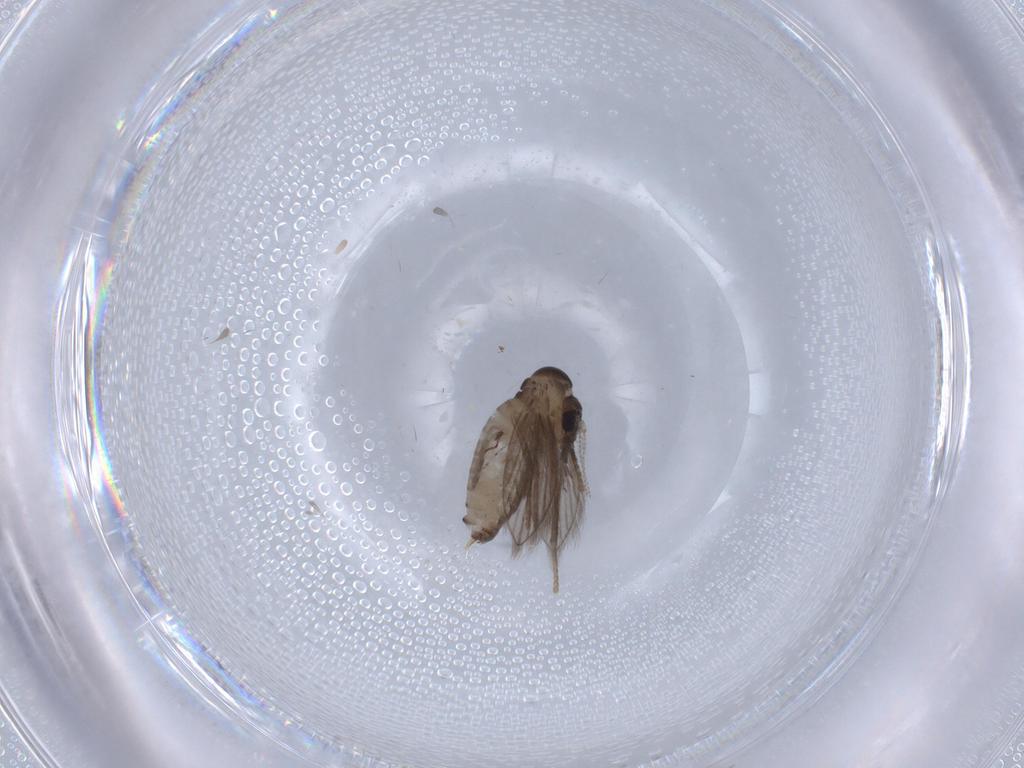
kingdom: Animalia
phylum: Arthropoda
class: Insecta
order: Diptera
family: Psychodidae
